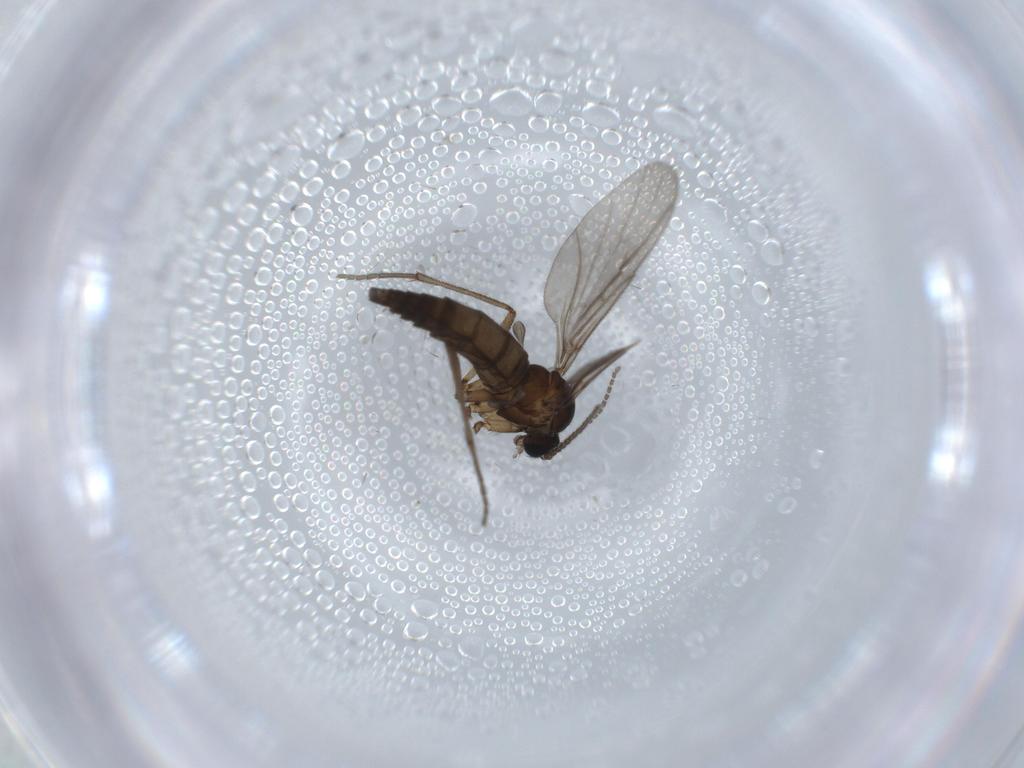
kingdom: Animalia
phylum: Arthropoda
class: Insecta
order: Diptera
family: Sciaridae
